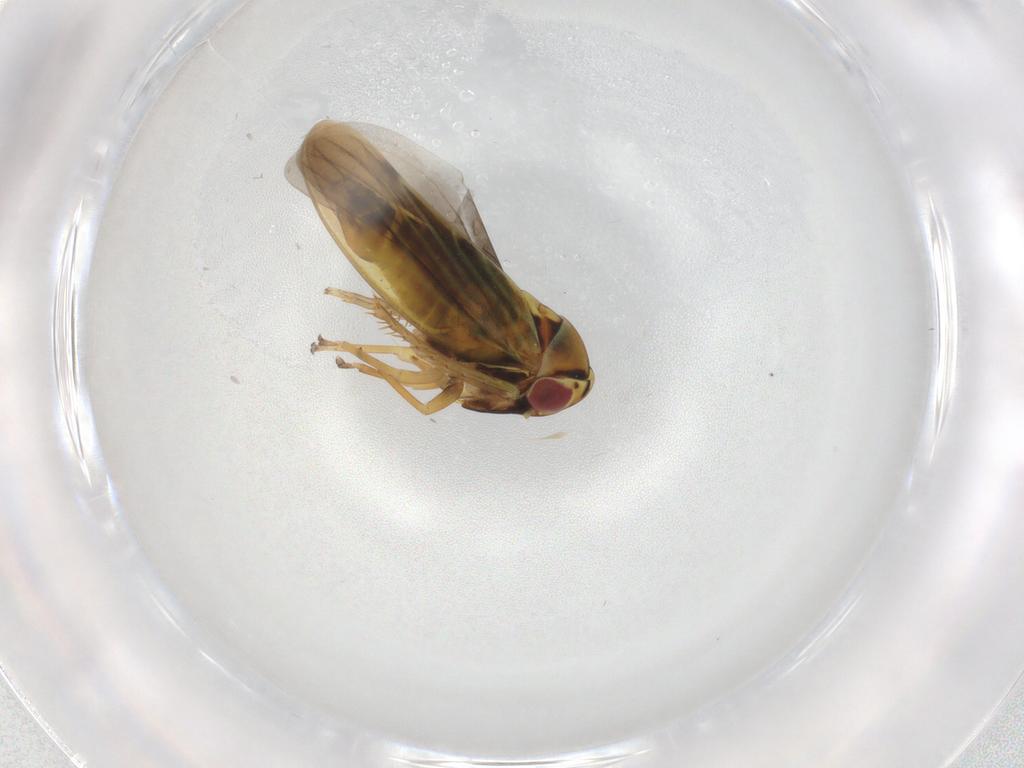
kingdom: Animalia
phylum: Arthropoda
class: Insecta
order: Hemiptera
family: Cicadellidae
